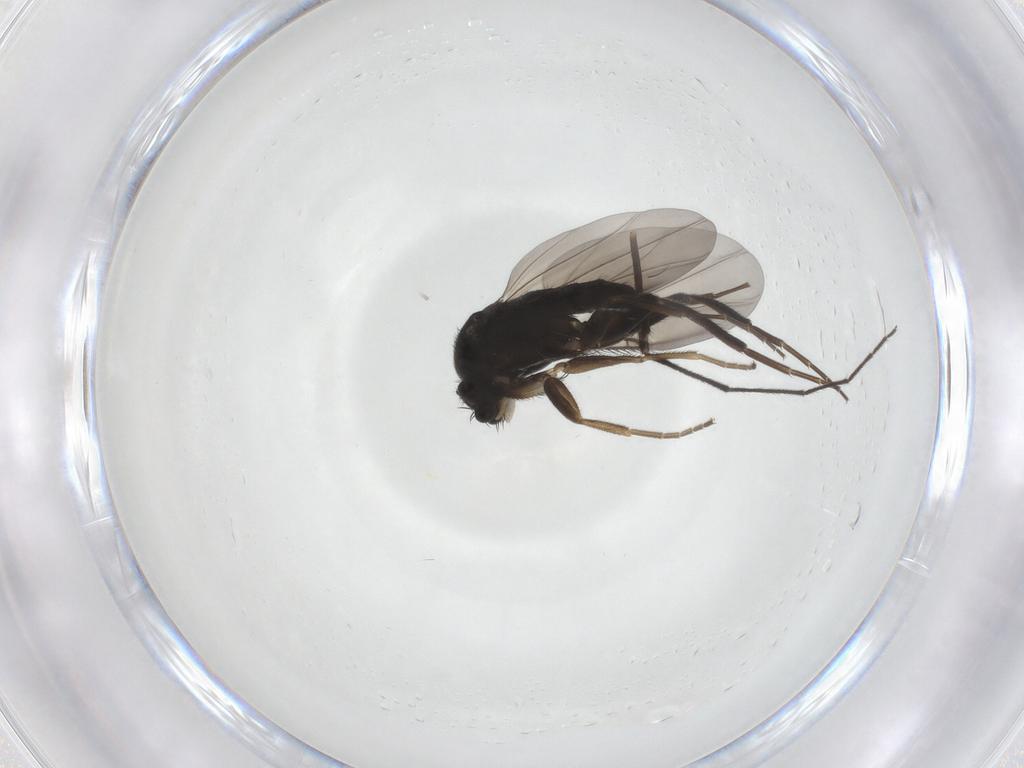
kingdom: Animalia
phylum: Arthropoda
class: Insecta
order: Diptera
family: Phoridae
